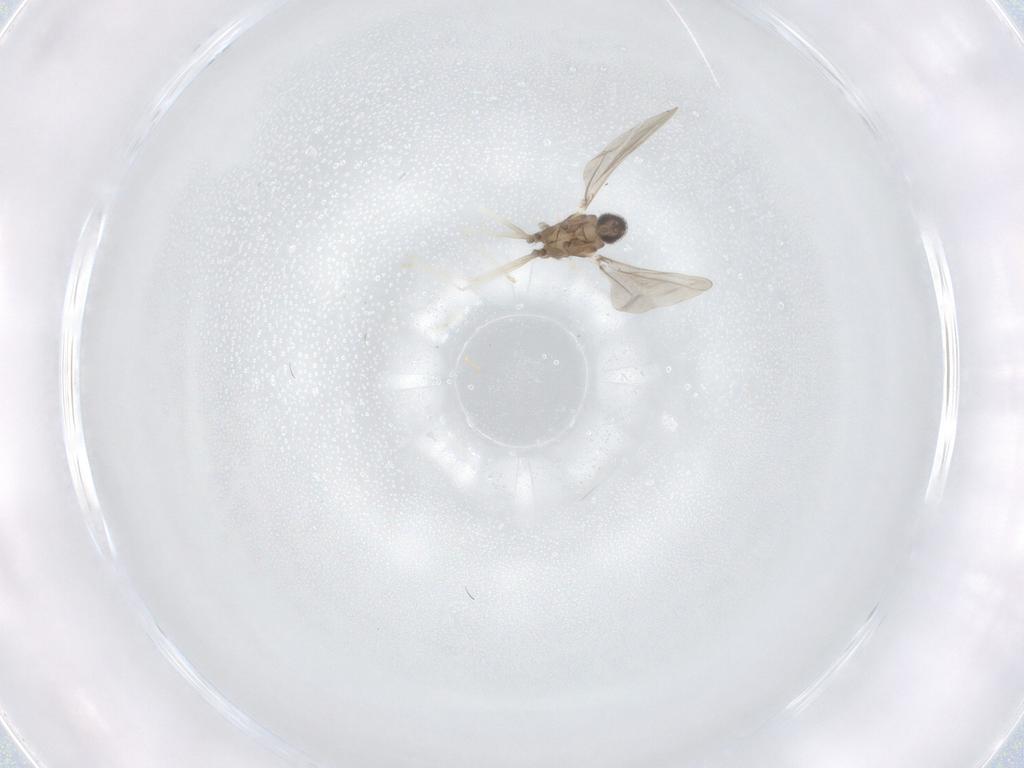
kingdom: Animalia
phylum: Arthropoda
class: Insecta
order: Diptera
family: Cecidomyiidae
